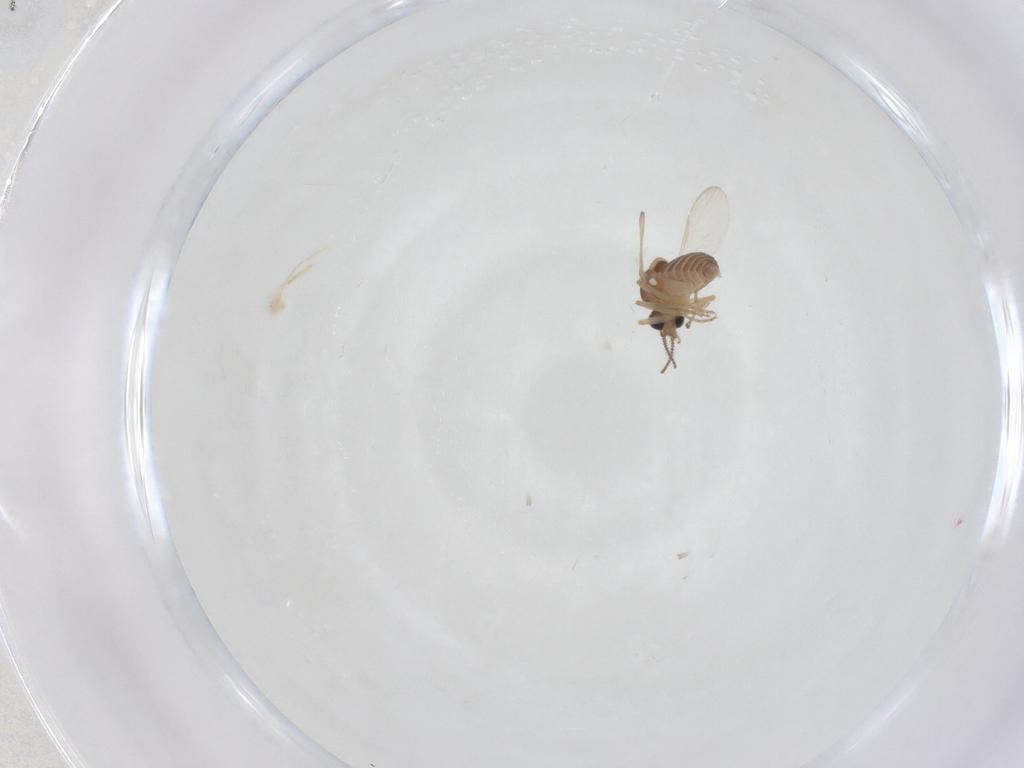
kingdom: Animalia
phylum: Arthropoda
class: Insecta
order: Diptera
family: Ceratopogonidae
